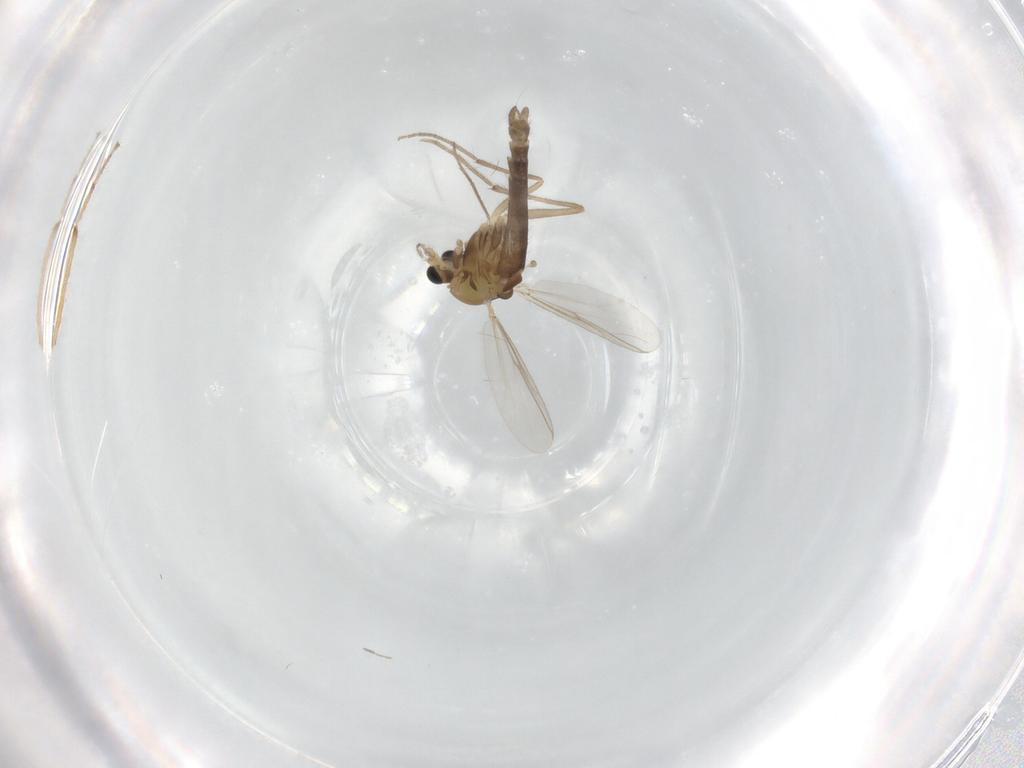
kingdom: Animalia
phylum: Arthropoda
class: Insecta
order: Diptera
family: Chironomidae
